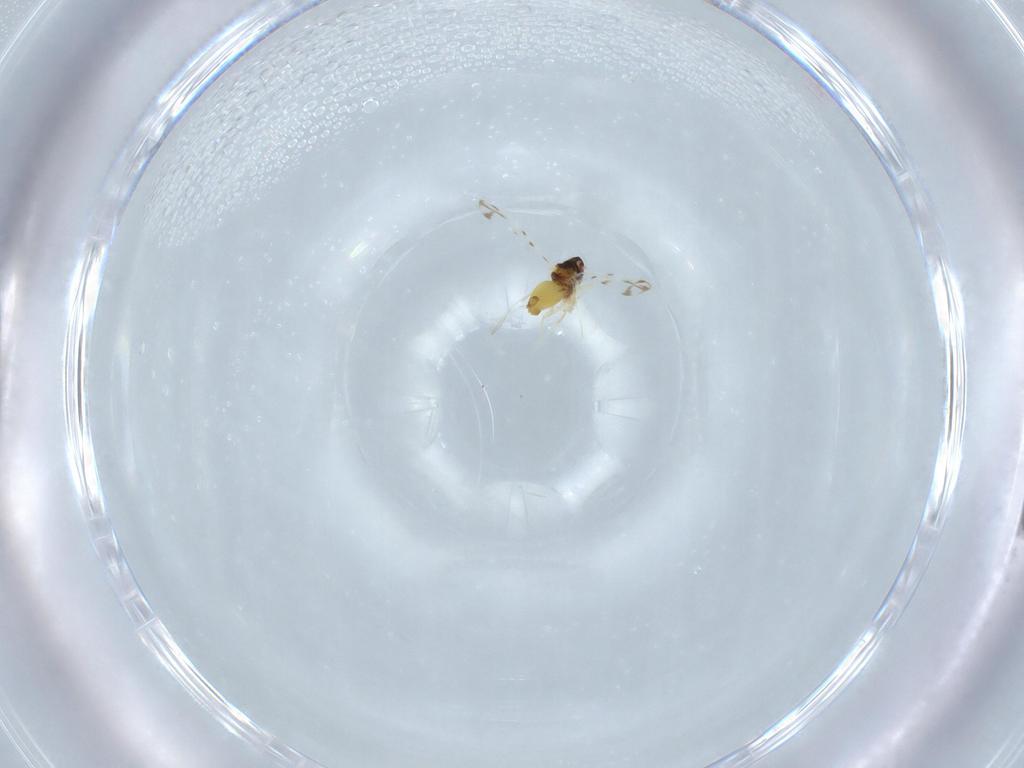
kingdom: Animalia
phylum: Arthropoda
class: Insecta
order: Hemiptera
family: Aleyrodidae
